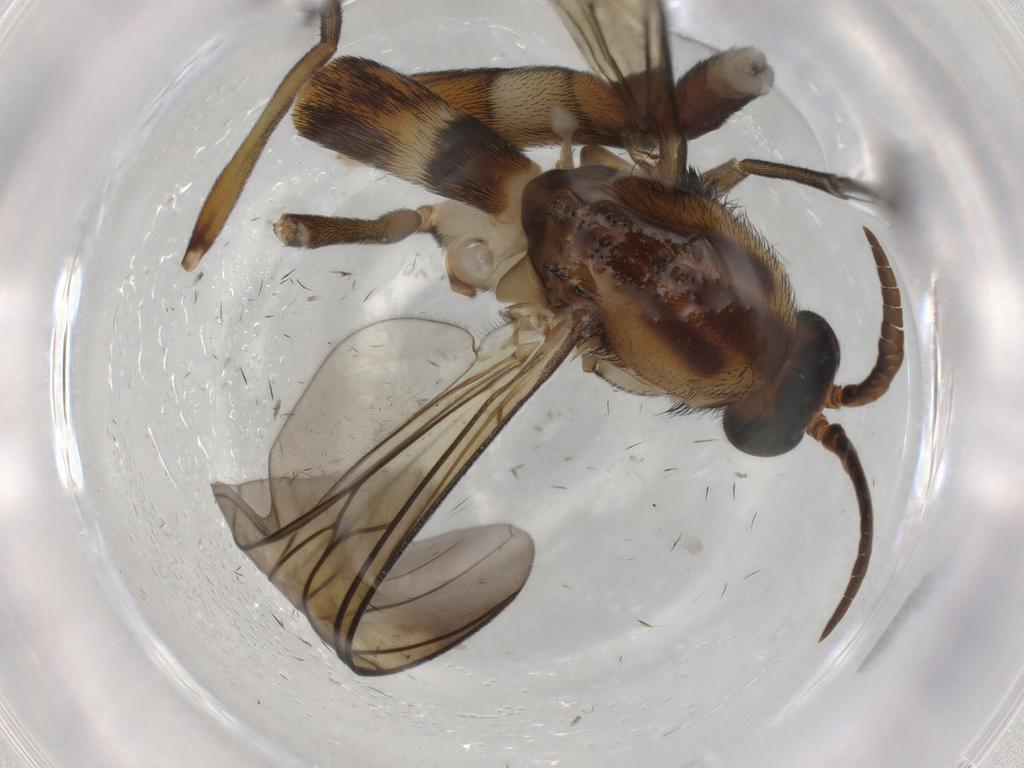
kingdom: Animalia
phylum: Arthropoda
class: Insecta
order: Diptera
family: Keroplatidae
